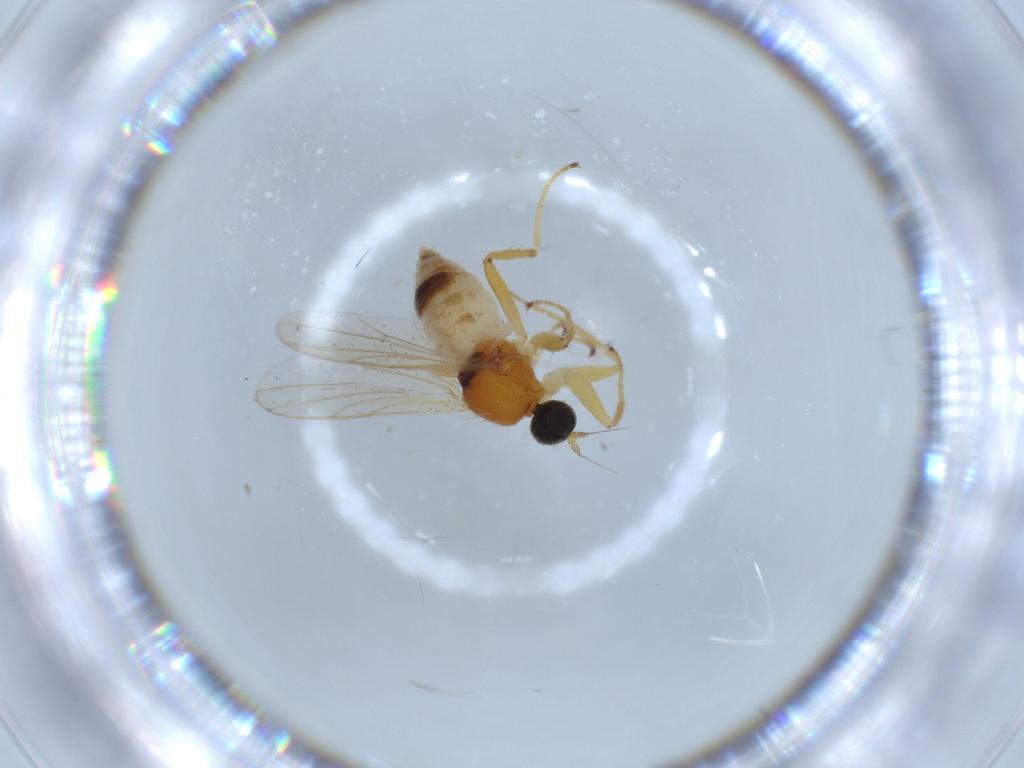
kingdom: Animalia
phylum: Arthropoda
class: Insecta
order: Diptera
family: Hybotidae
